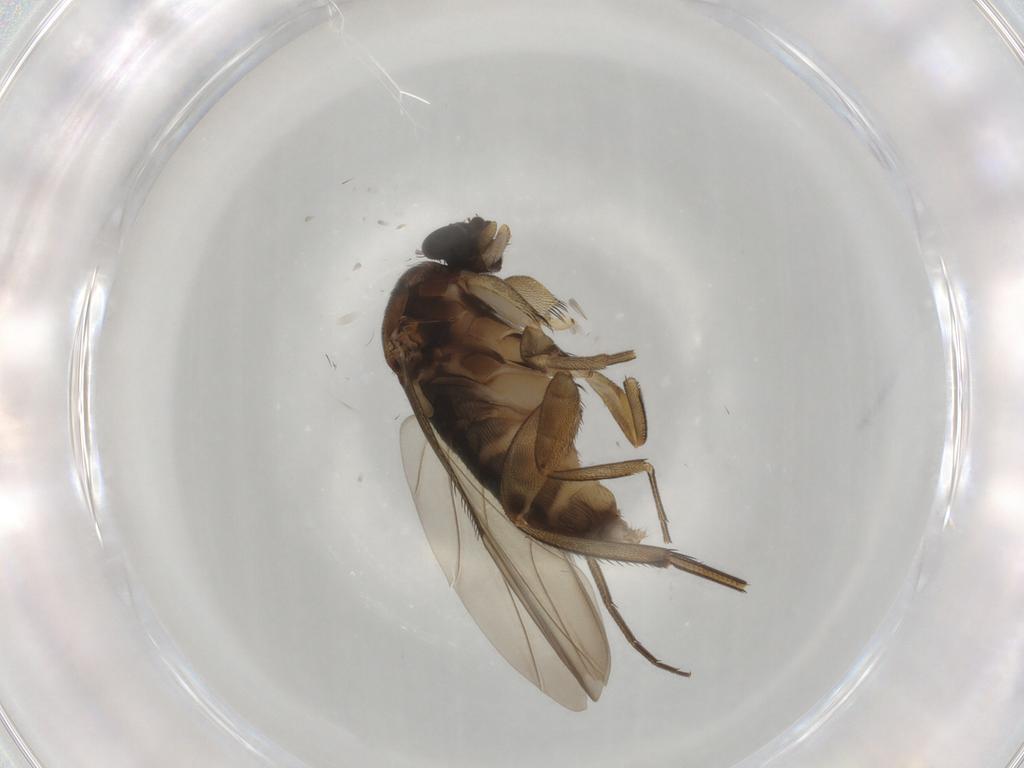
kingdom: Animalia
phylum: Arthropoda
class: Insecta
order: Diptera
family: Phoridae
